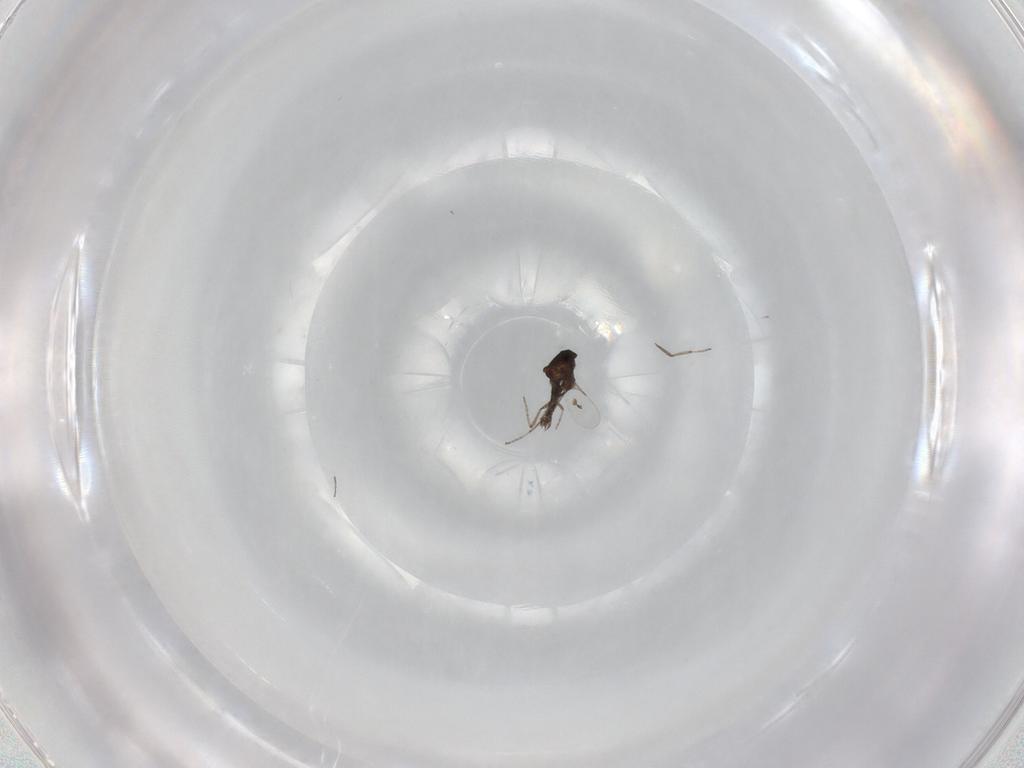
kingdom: Animalia
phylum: Arthropoda
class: Insecta
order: Diptera
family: Ceratopogonidae
